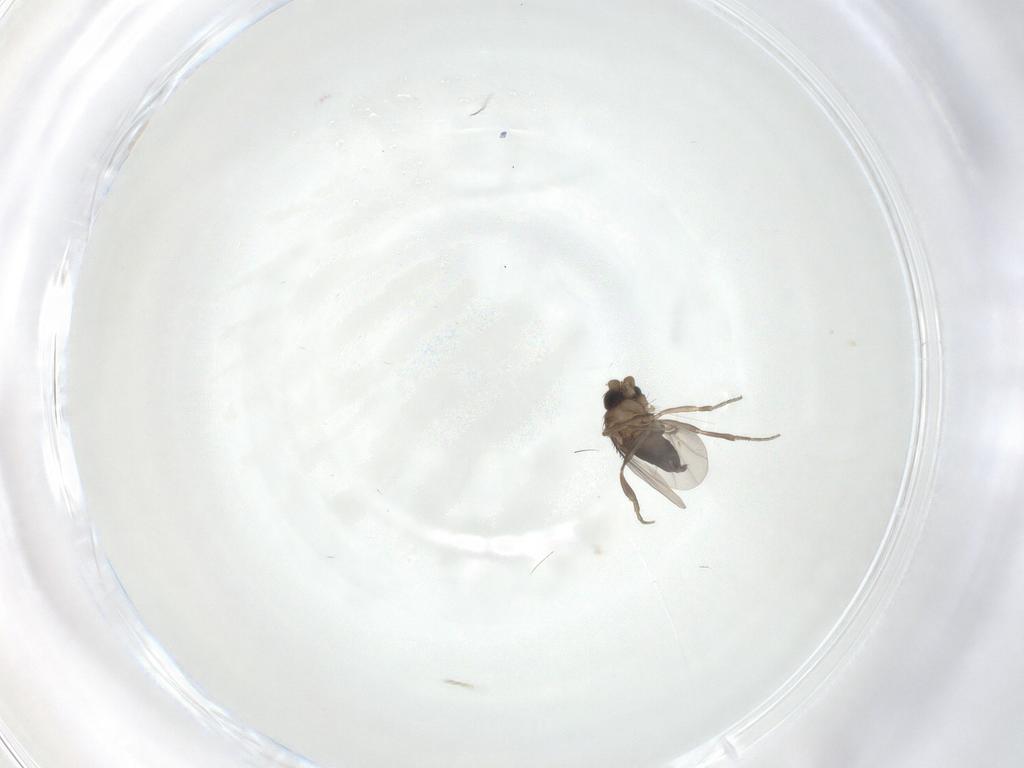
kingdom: Animalia
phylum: Arthropoda
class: Insecta
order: Diptera
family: Phoridae
